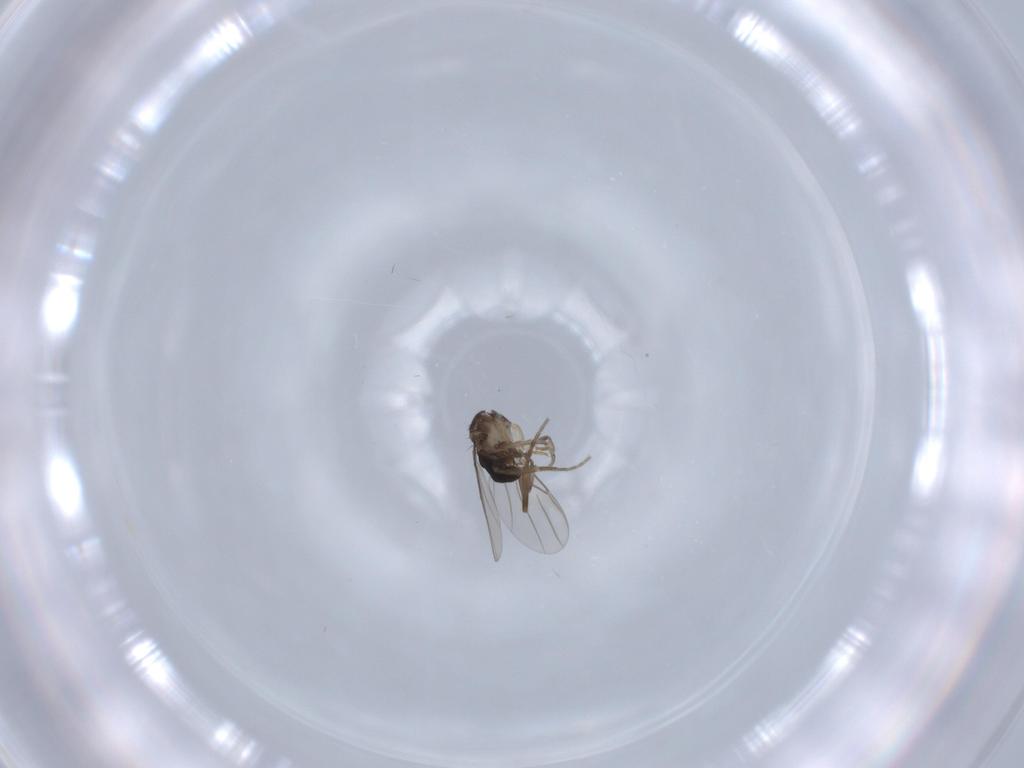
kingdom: Animalia
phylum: Arthropoda
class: Insecta
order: Diptera
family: Phoridae
